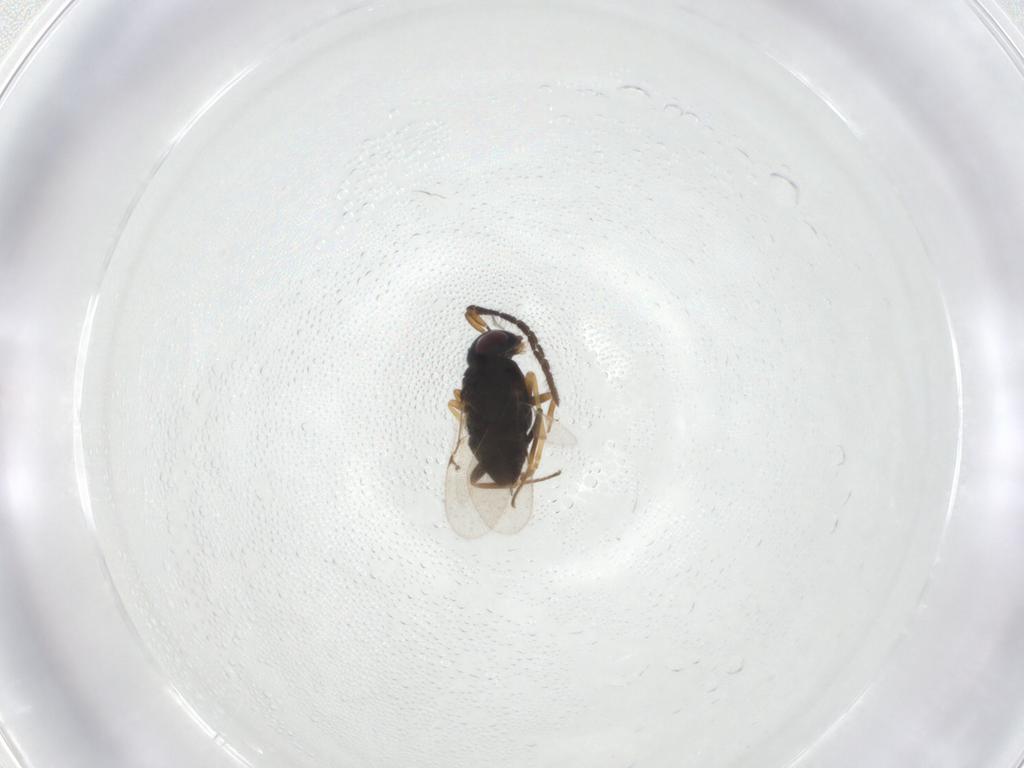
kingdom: Animalia
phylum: Arthropoda
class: Insecta
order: Hymenoptera
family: Encyrtidae
